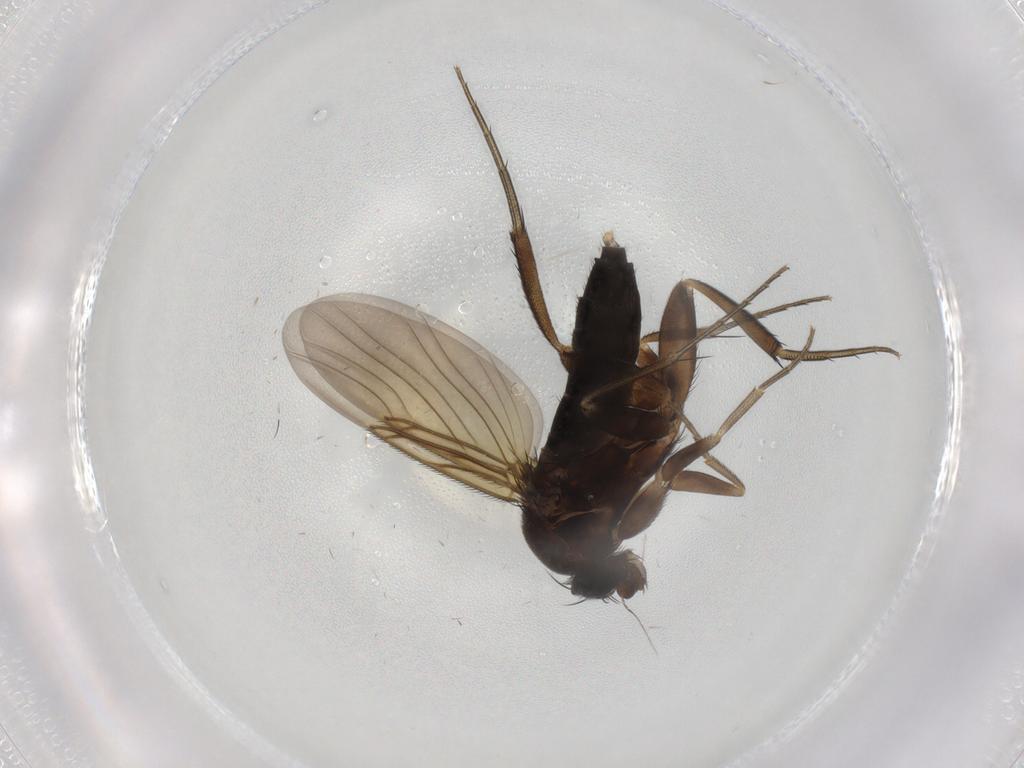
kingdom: Animalia
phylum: Arthropoda
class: Insecta
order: Diptera
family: Phoridae
